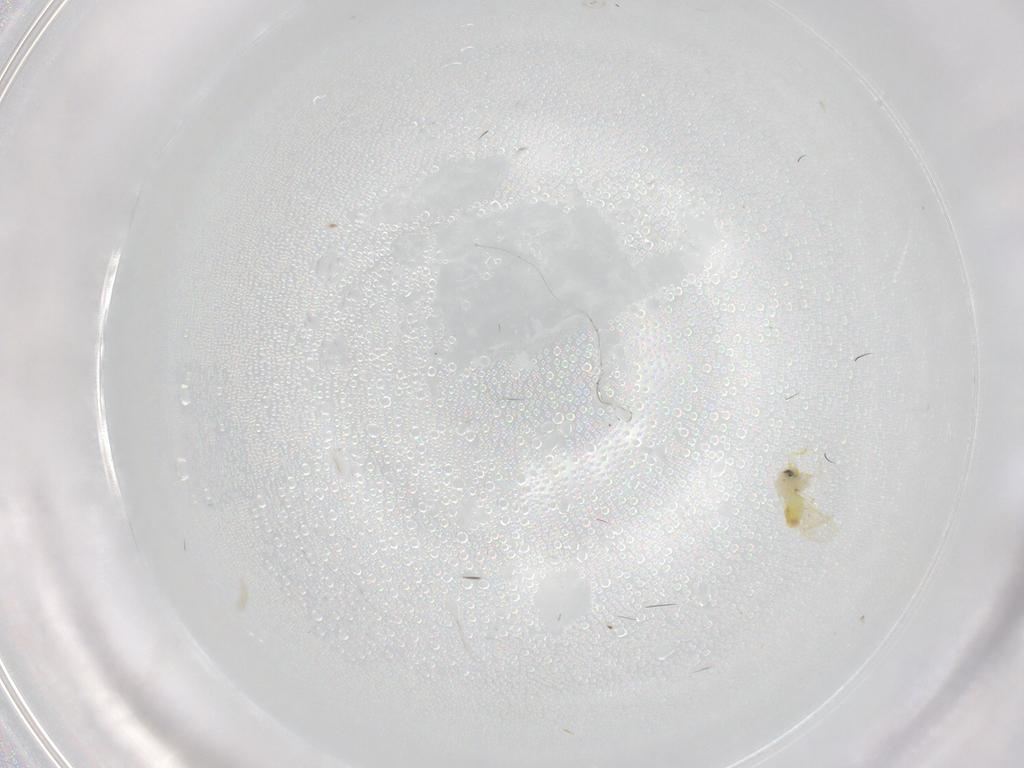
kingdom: Animalia
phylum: Arthropoda
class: Insecta
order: Hemiptera
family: Aleyrodidae
